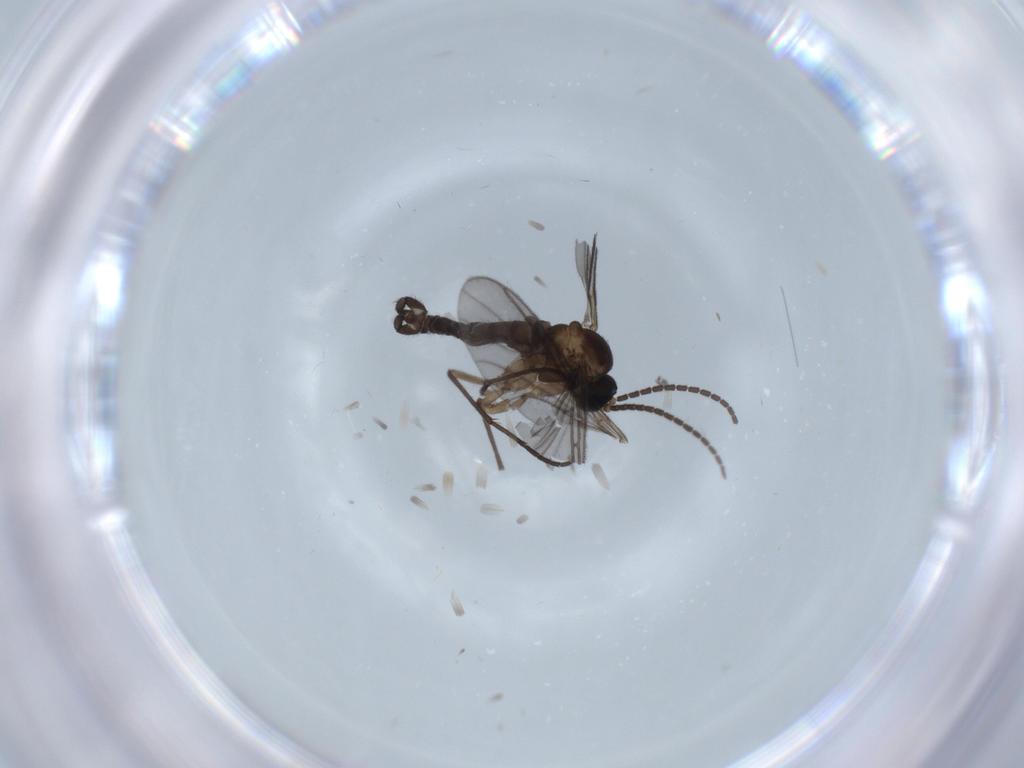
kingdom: Animalia
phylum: Arthropoda
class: Insecta
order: Diptera
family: Sciaridae
